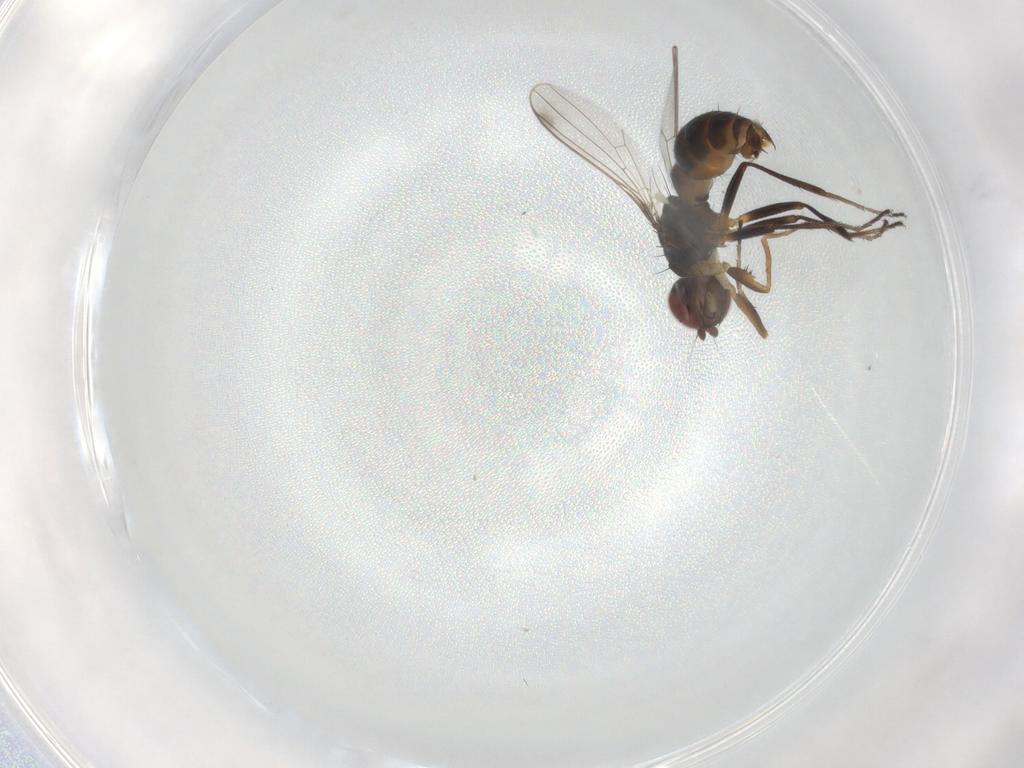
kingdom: Animalia
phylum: Arthropoda
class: Insecta
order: Diptera
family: Sepsidae
